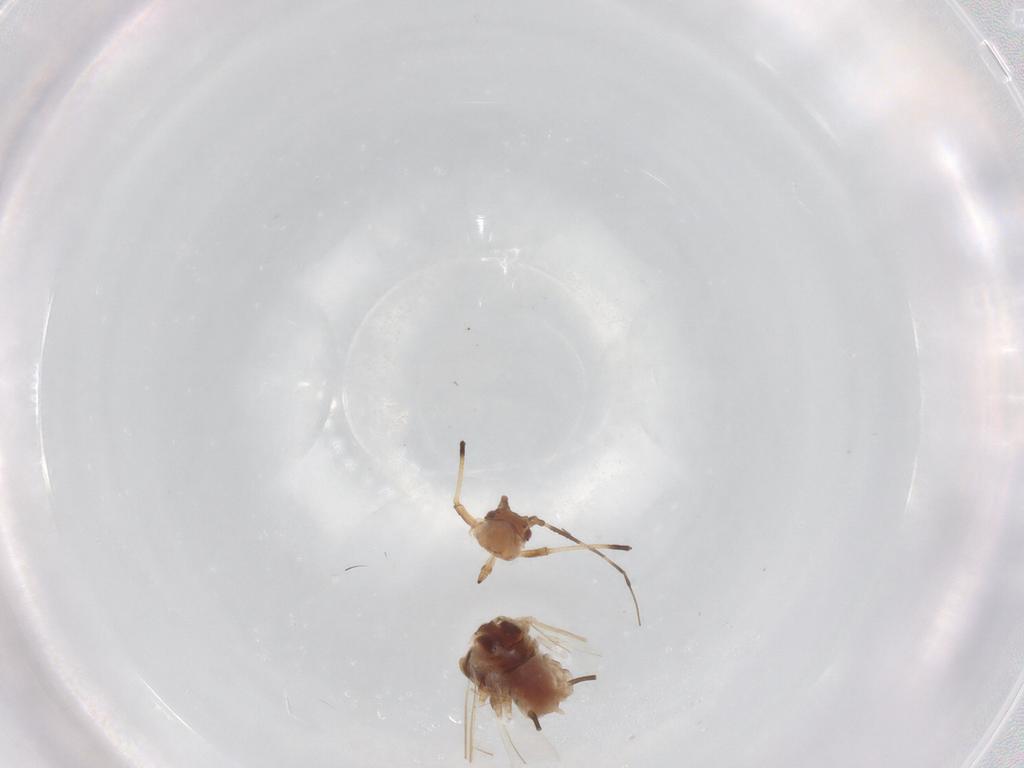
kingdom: Animalia
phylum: Arthropoda
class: Insecta
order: Hemiptera
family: Aphididae
